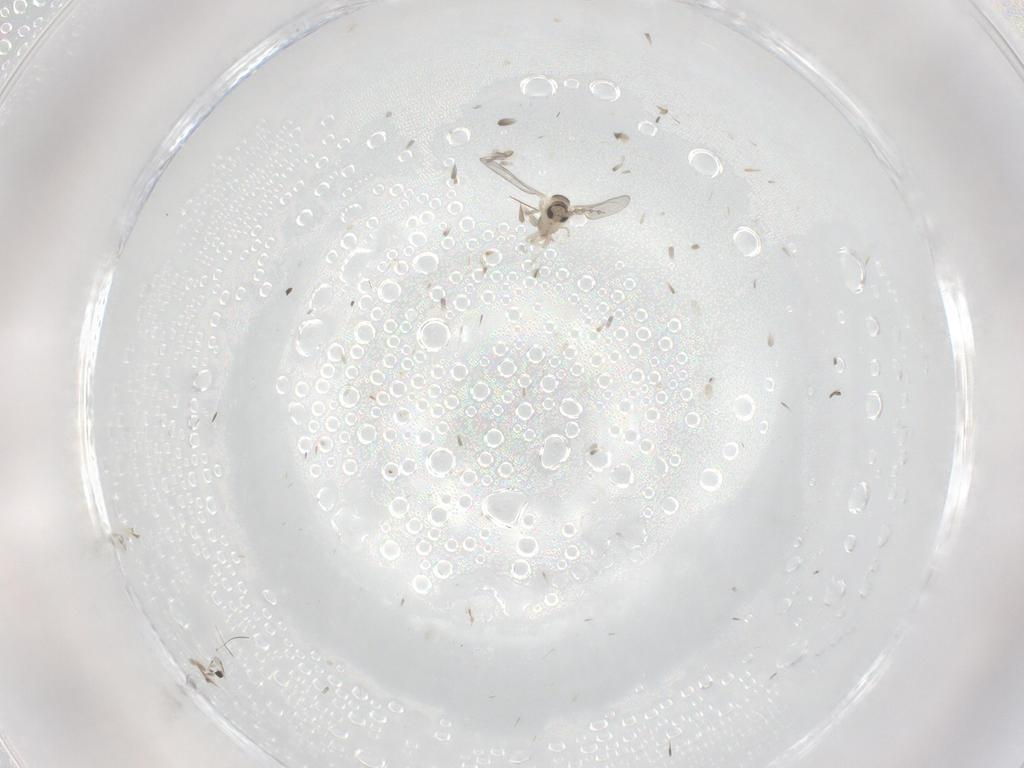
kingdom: Animalia
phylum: Arthropoda
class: Insecta
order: Diptera
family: Cecidomyiidae
